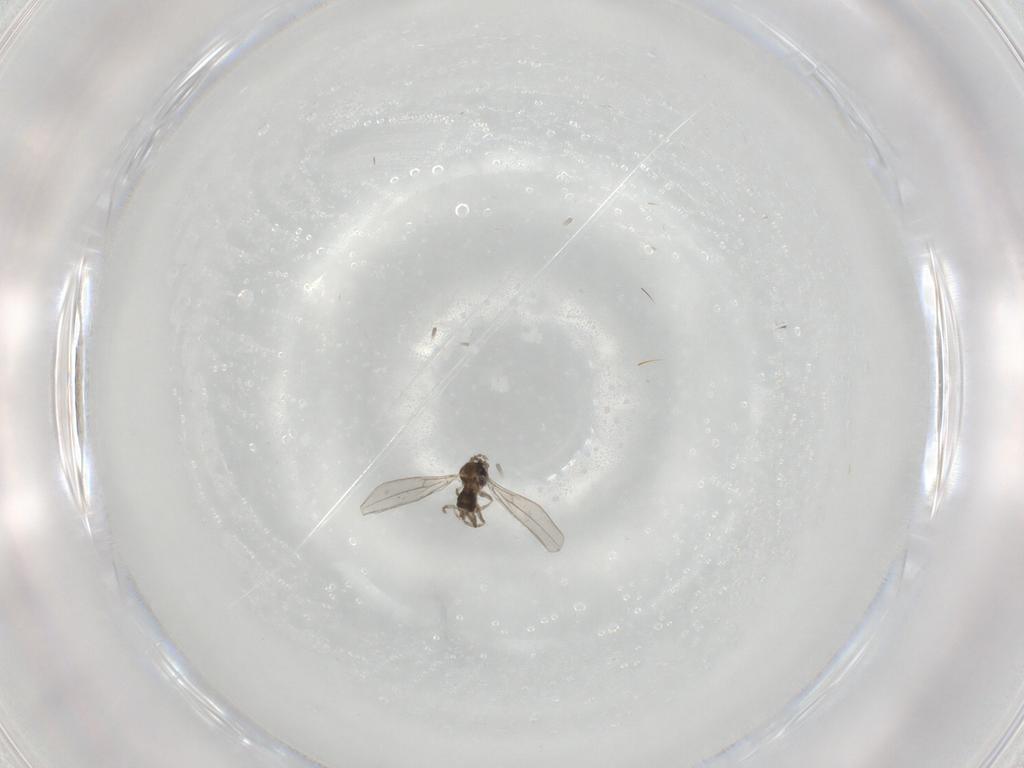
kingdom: Animalia
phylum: Arthropoda
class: Insecta
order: Diptera
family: Cecidomyiidae
